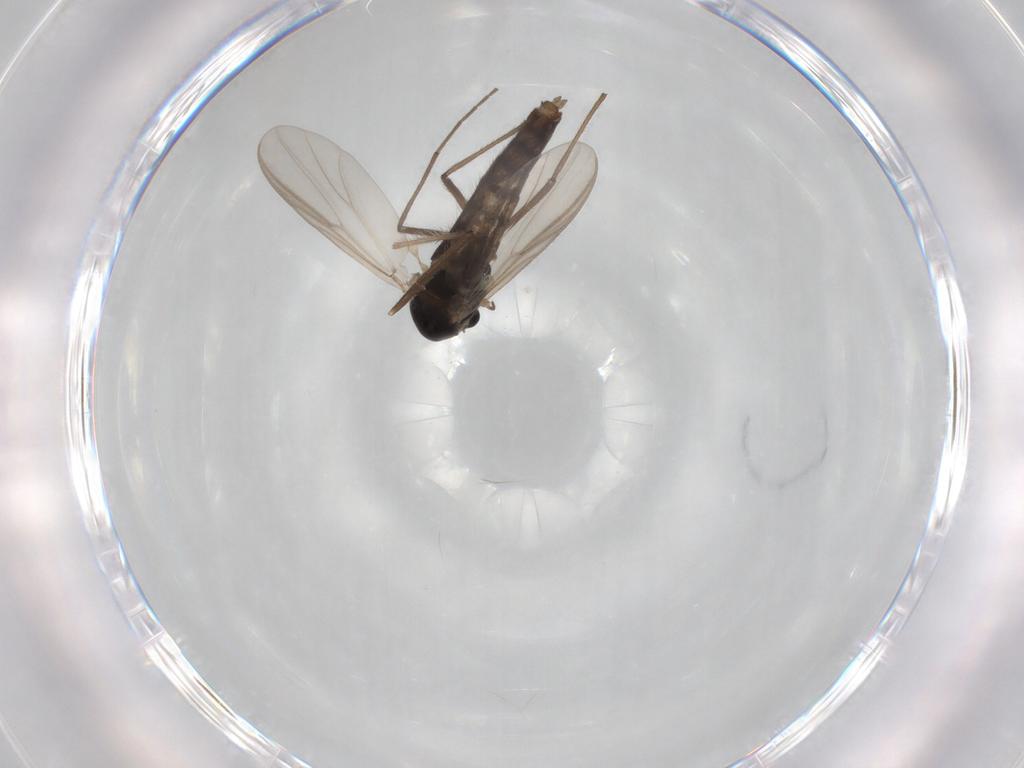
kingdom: Animalia
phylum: Arthropoda
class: Insecta
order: Diptera
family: Chironomidae
